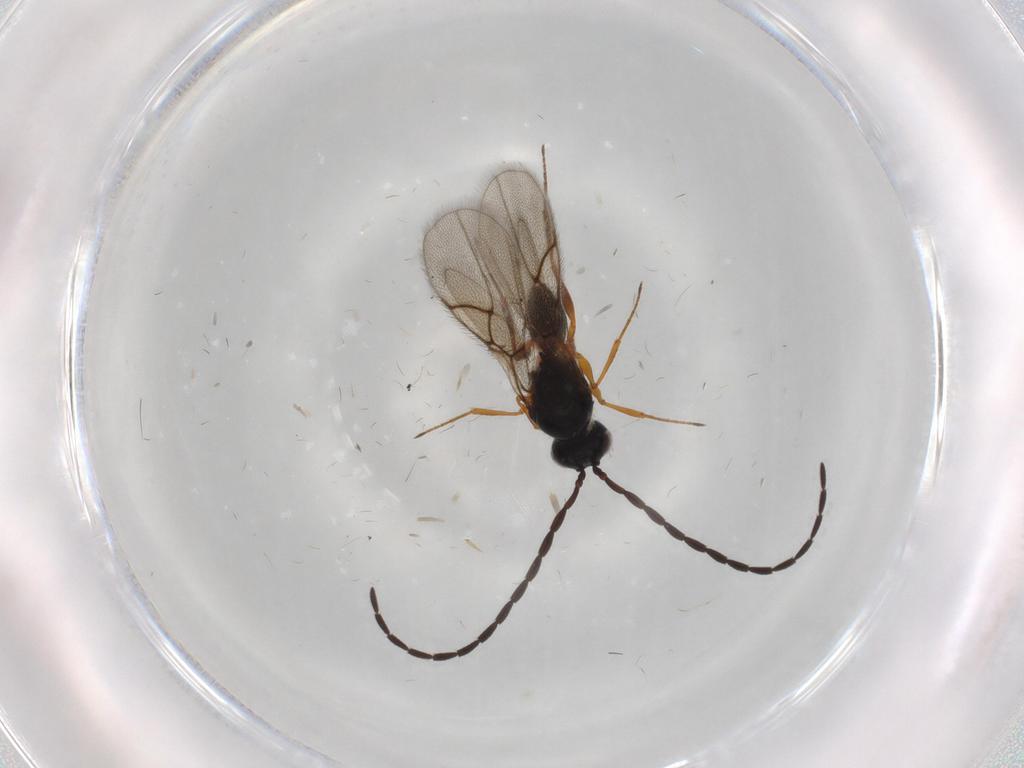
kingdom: Animalia
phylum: Arthropoda
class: Insecta
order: Hymenoptera
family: Figitidae
